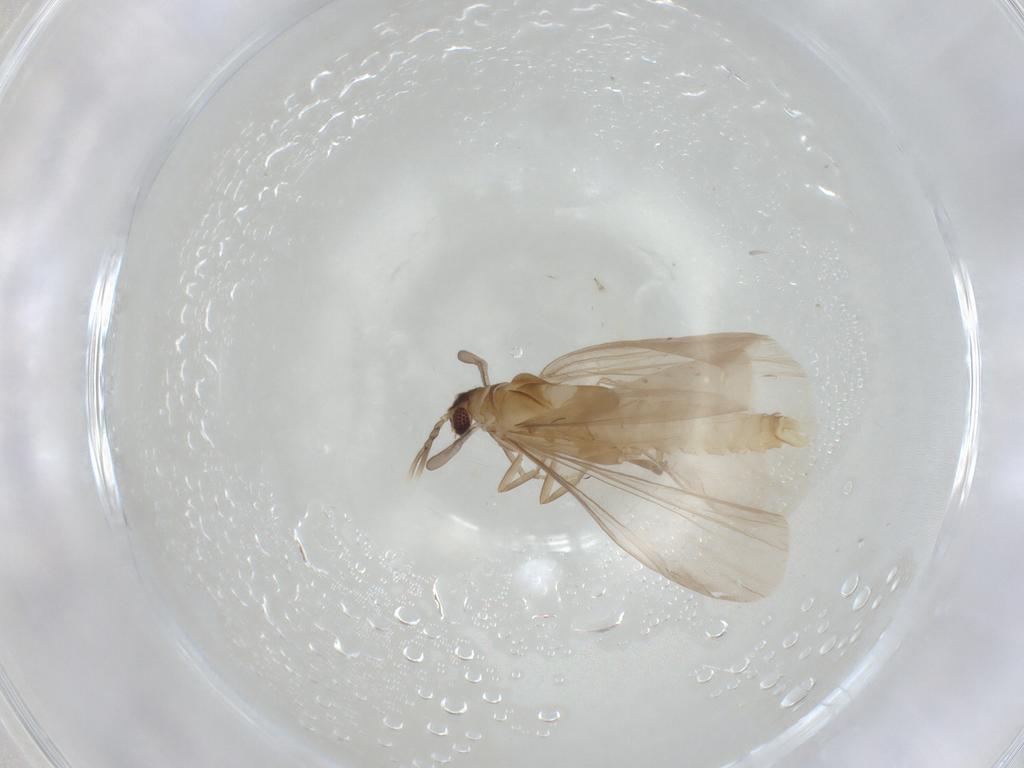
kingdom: Animalia
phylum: Arthropoda
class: Insecta
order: Strepsiptera
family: Mengenillidae
